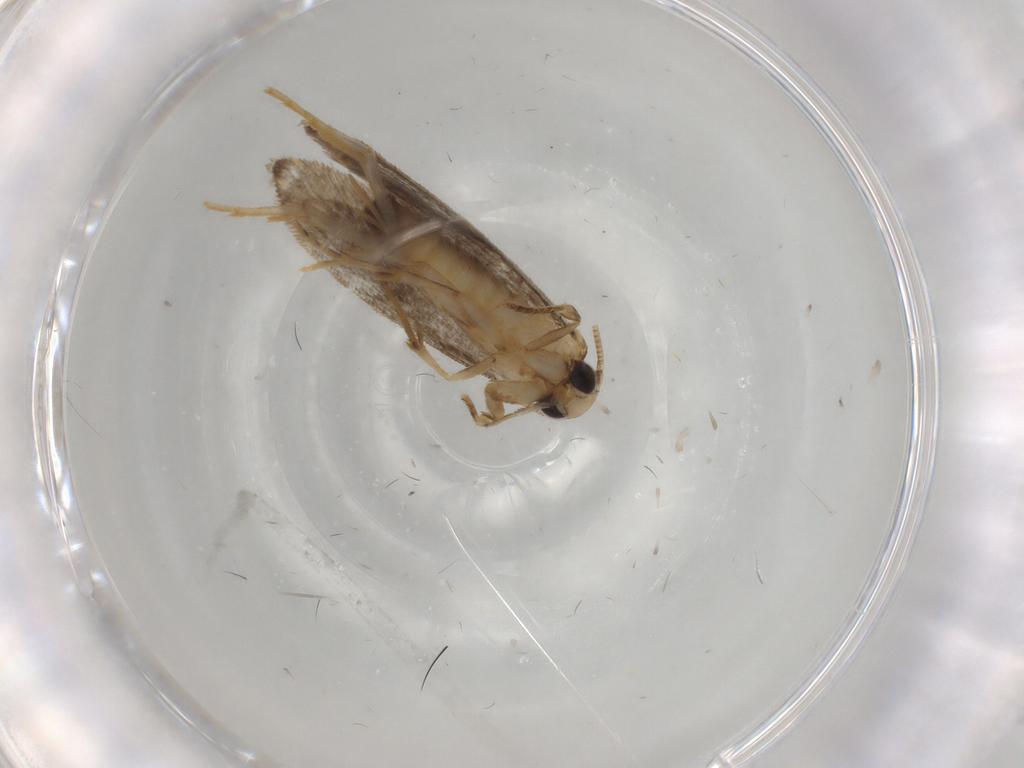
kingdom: Animalia
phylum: Arthropoda
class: Insecta
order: Lepidoptera
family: Tineidae
